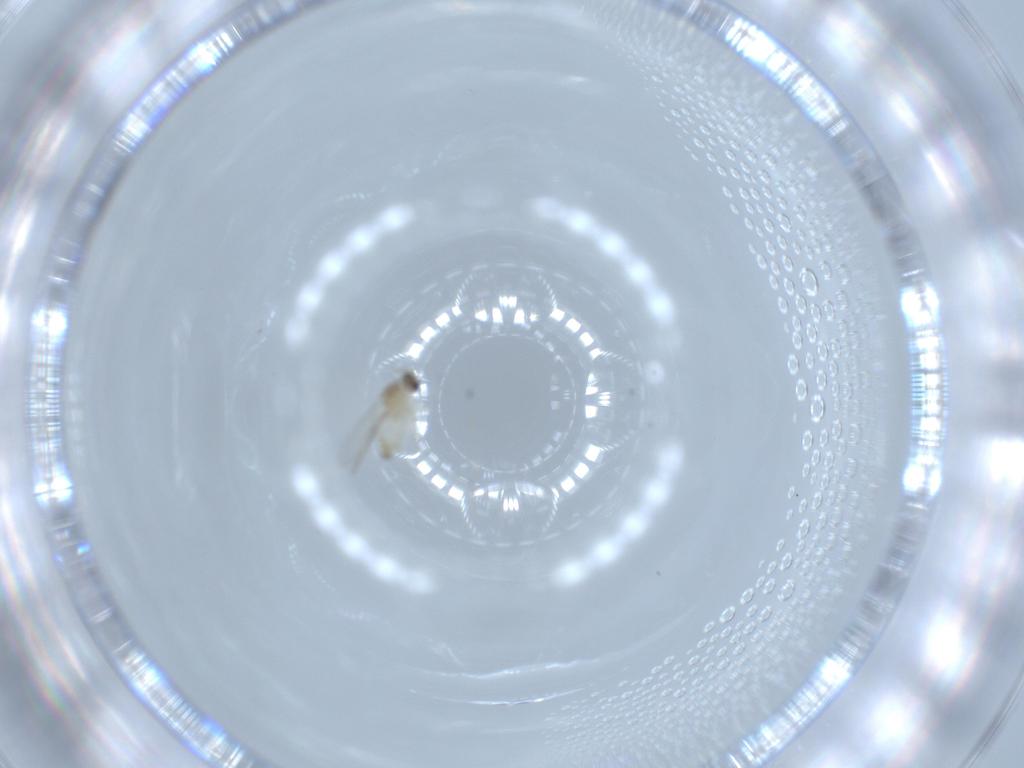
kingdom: Animalia
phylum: Arthropoda
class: Insecta
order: Diptera
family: Cecidomyiidae
